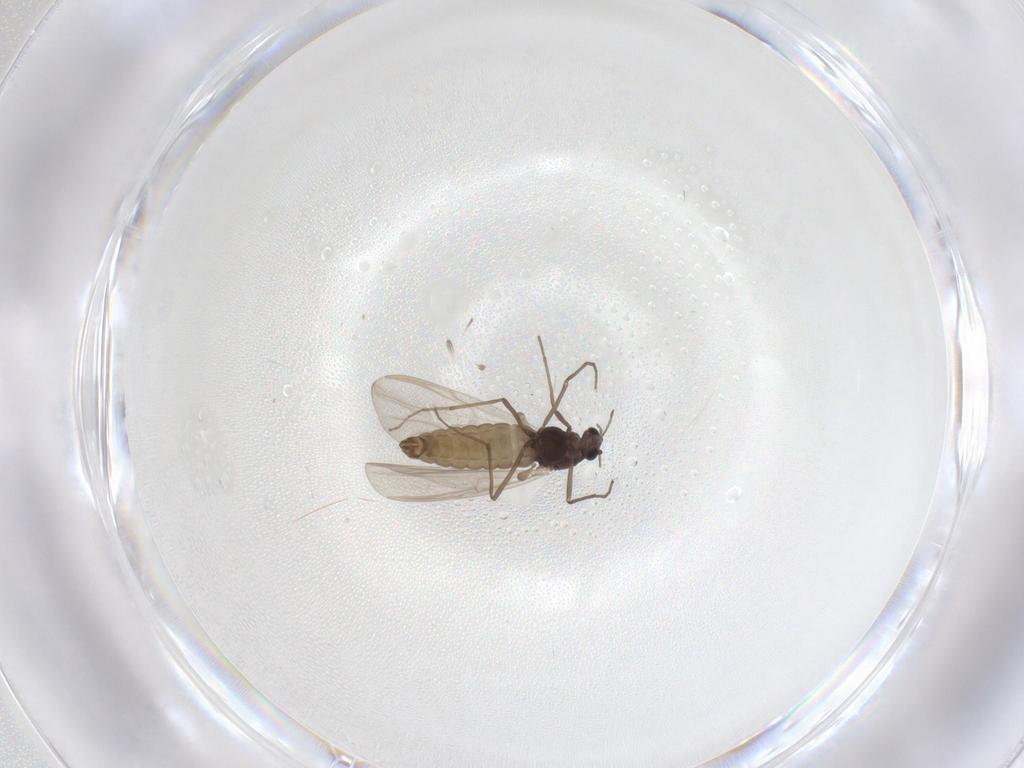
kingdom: Animalia
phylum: Arthropoda
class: Insecta
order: Diptera
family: Chironomidae
